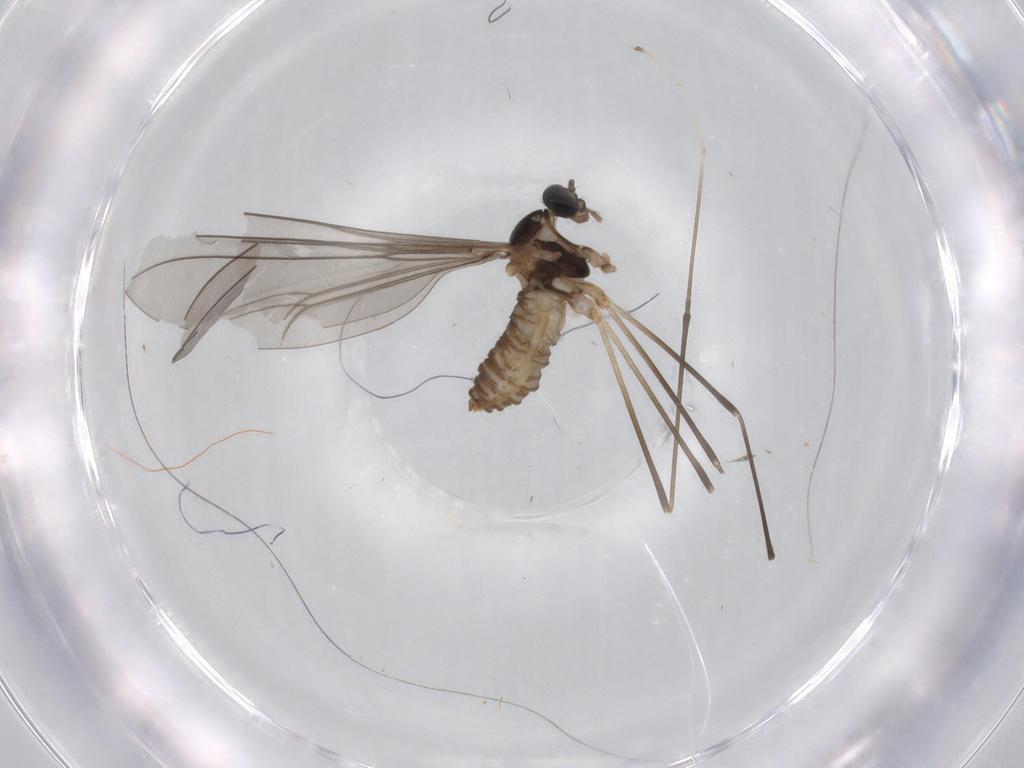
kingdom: Animalia
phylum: Arthropoda
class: Insecta
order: Diptera
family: Cecidomyiidae
